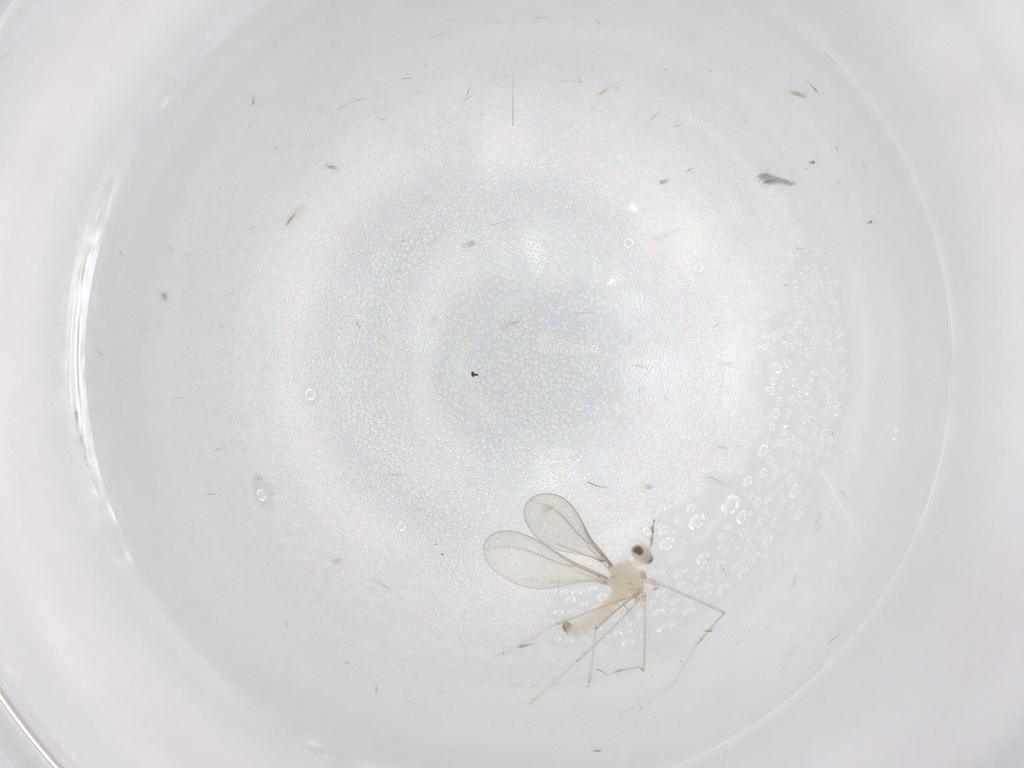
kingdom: Animalia
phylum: Arthropoda
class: Insecta
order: Diptera
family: Cecidomyiidae
